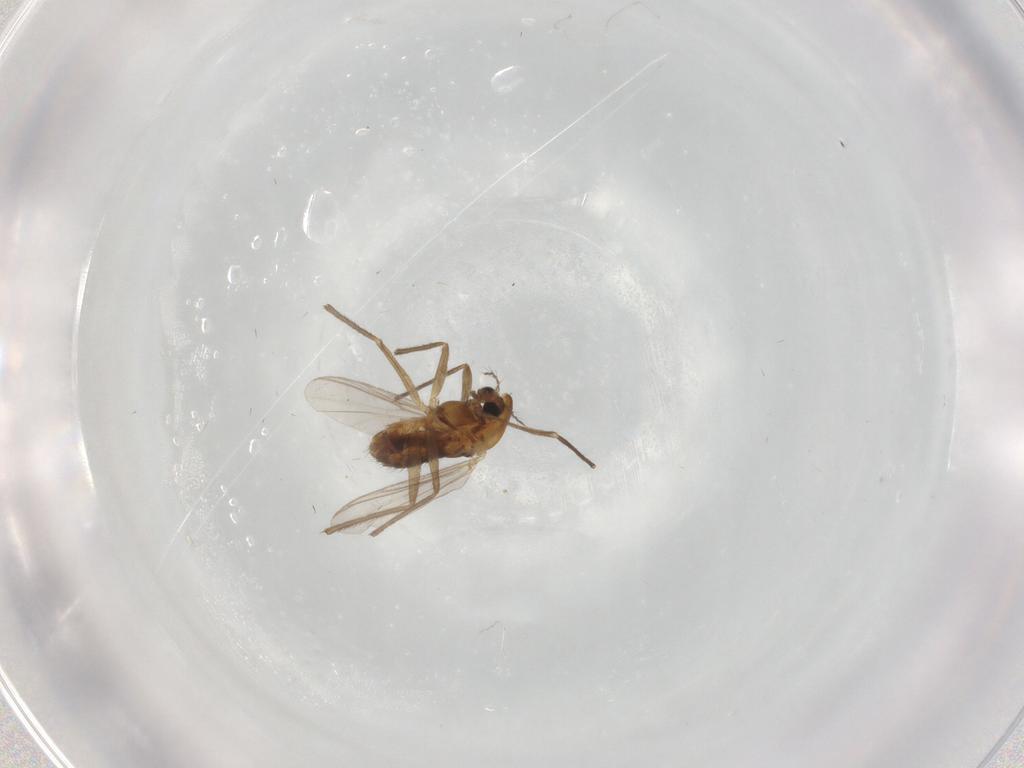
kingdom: Animalia
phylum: Arthropoda
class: Insecta
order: Diptera
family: Chironomidae
